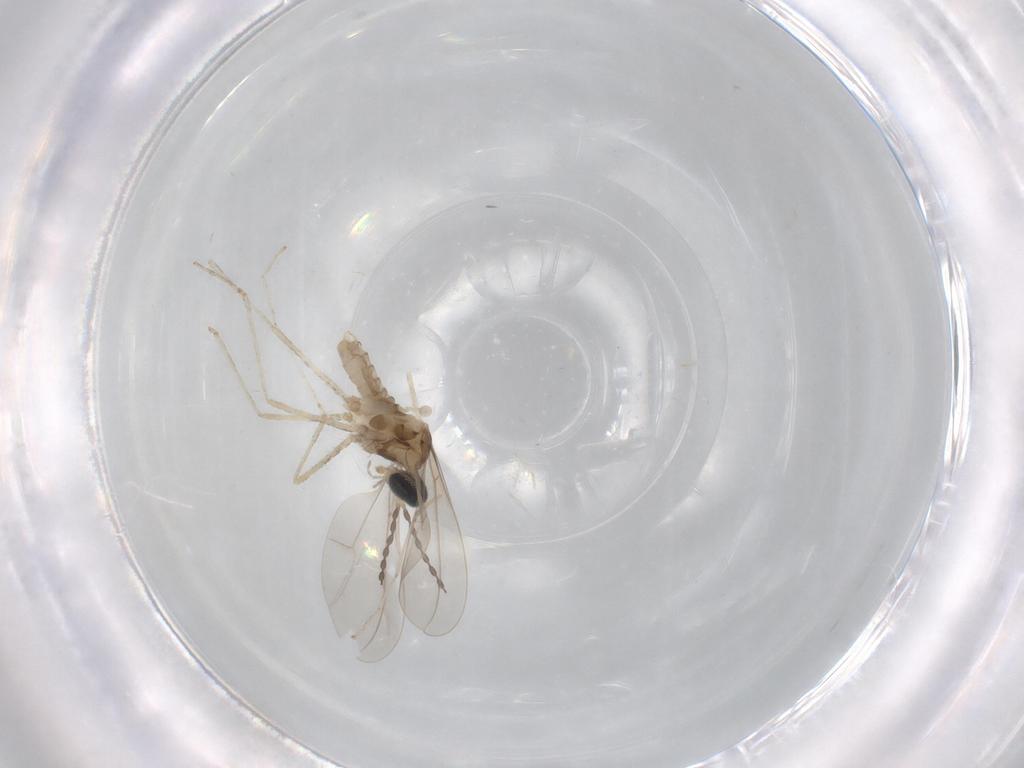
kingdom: Animalia
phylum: Arthropoda
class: Insecta
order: Diptera
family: Cecidomyiidae
